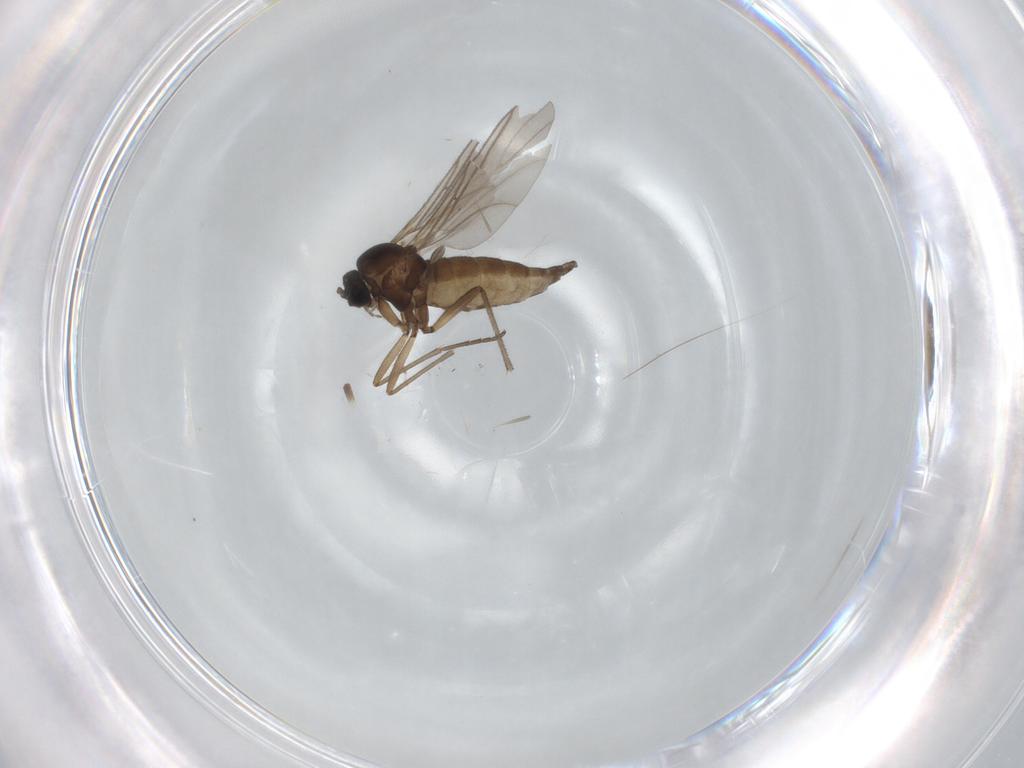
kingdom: Animalia
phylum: Arthropoda
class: Insecta
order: Diptera
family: Sciaridae
